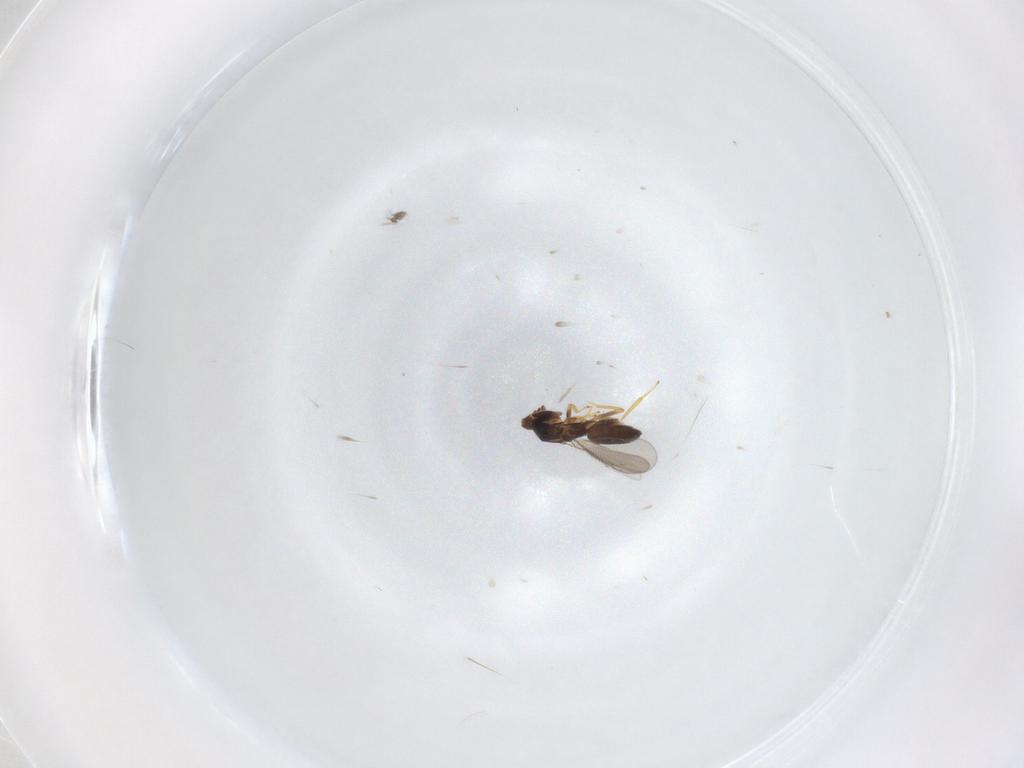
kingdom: Animalia
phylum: Arthropoda
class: Insecta
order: Hymenoptera
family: Eulophidae
